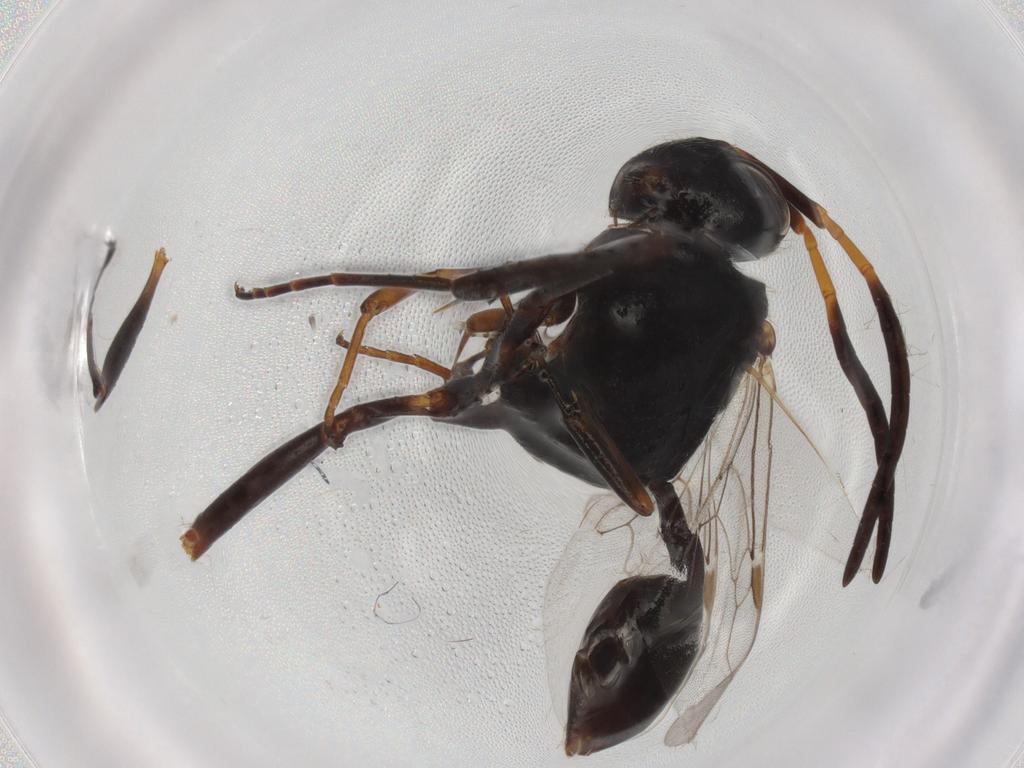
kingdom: Animalia
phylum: Arthropoda
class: Insecta
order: Hymenoptera
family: Aphelinidae
